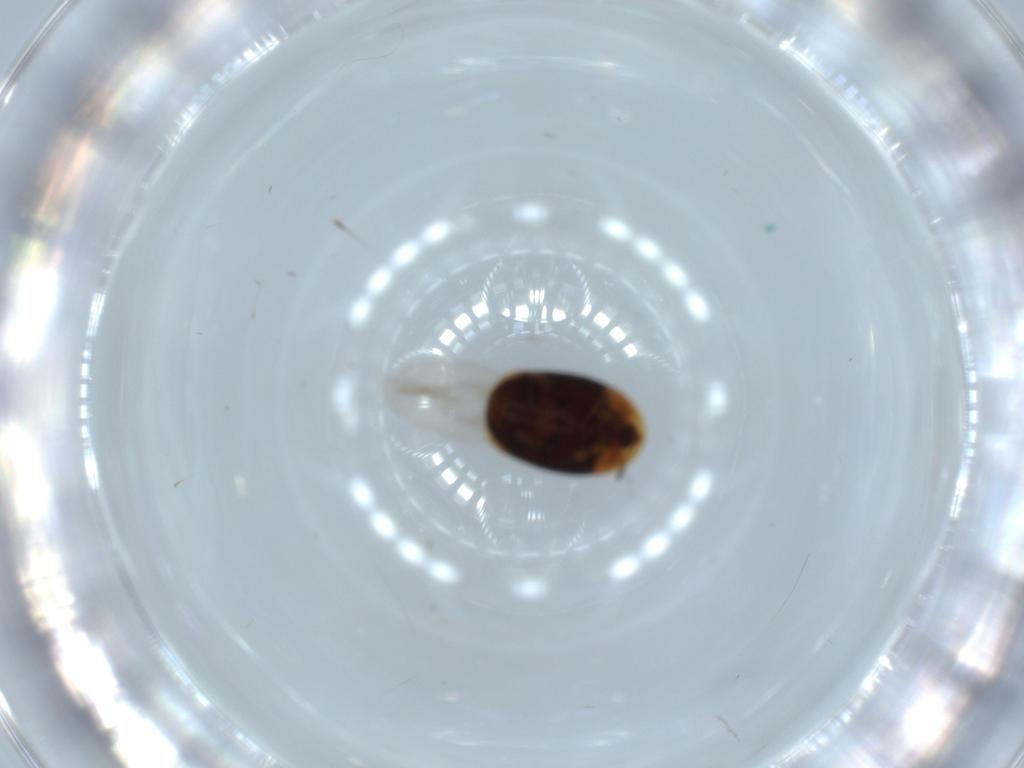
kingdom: Animalia
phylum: Arthropoda
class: Insecta
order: Coleoptera
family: Corylophidae
